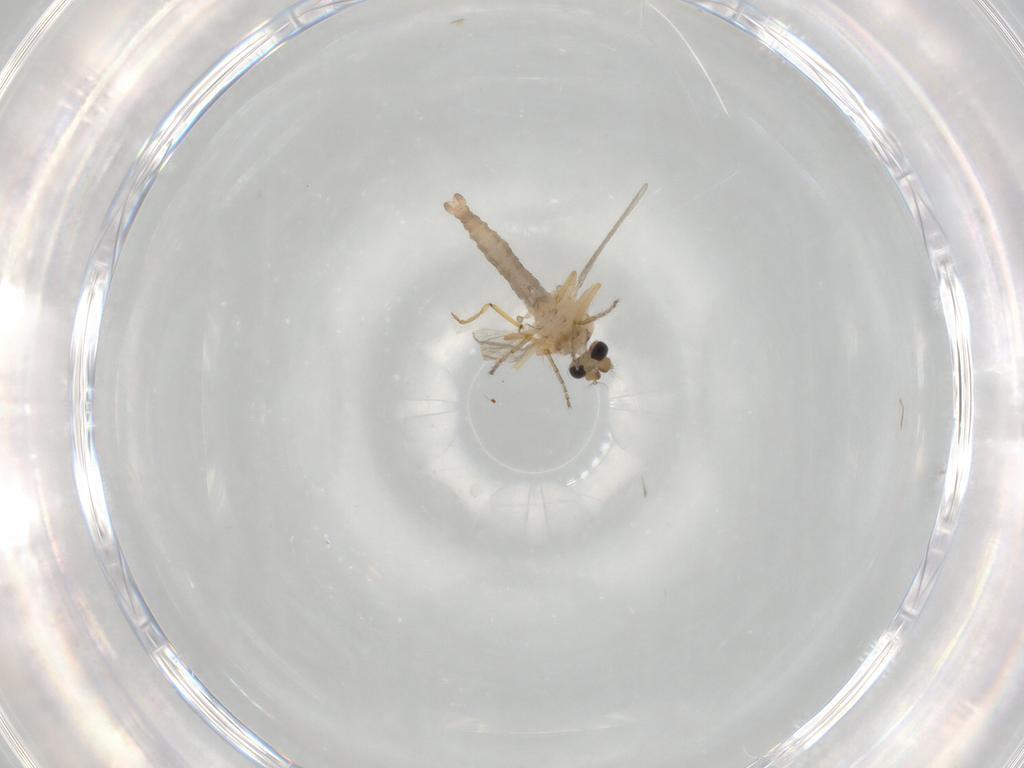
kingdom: Animalia
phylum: Arthropoda
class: Insecta
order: Diptera
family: Ceratopogonidae
